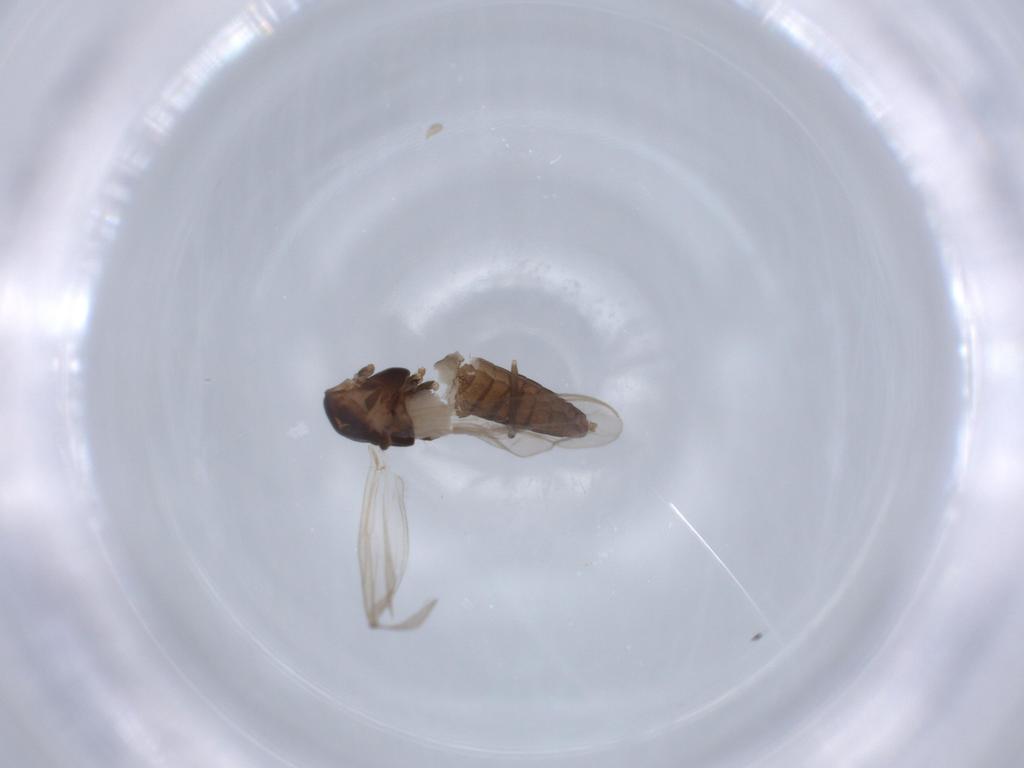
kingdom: Animalia
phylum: Arthropoda
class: Insecta
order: Diptera
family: Chironomidae
